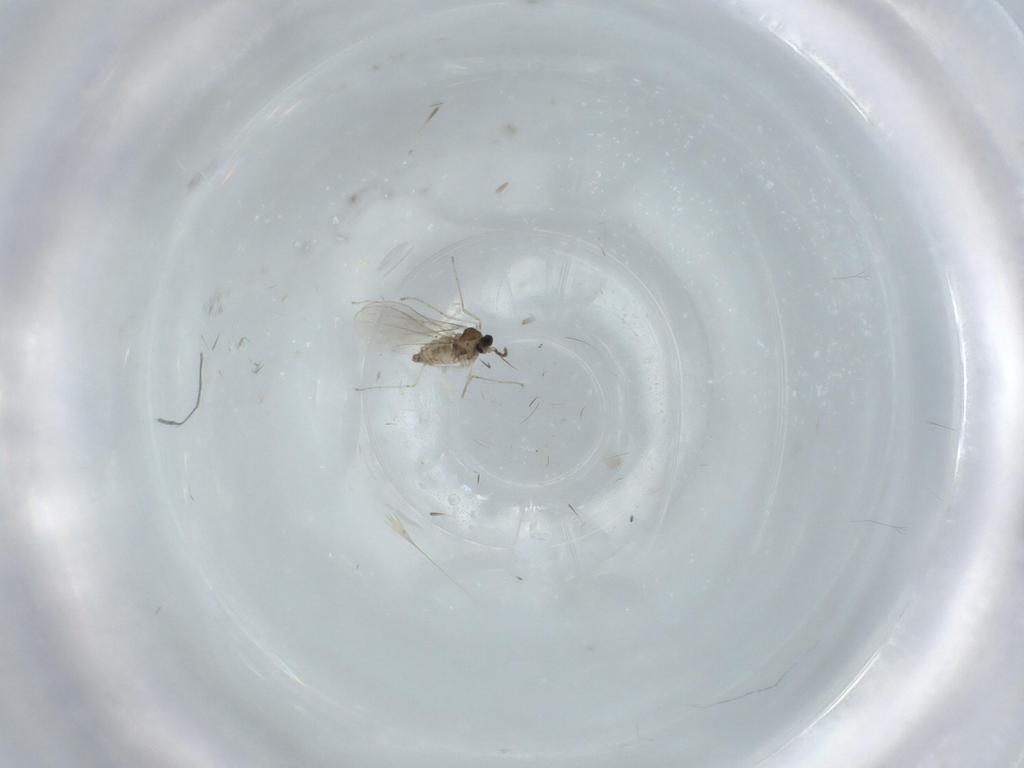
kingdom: Animalia
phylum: Arthropoda
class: Insecta
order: Diptera
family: Cecidomyiidae
